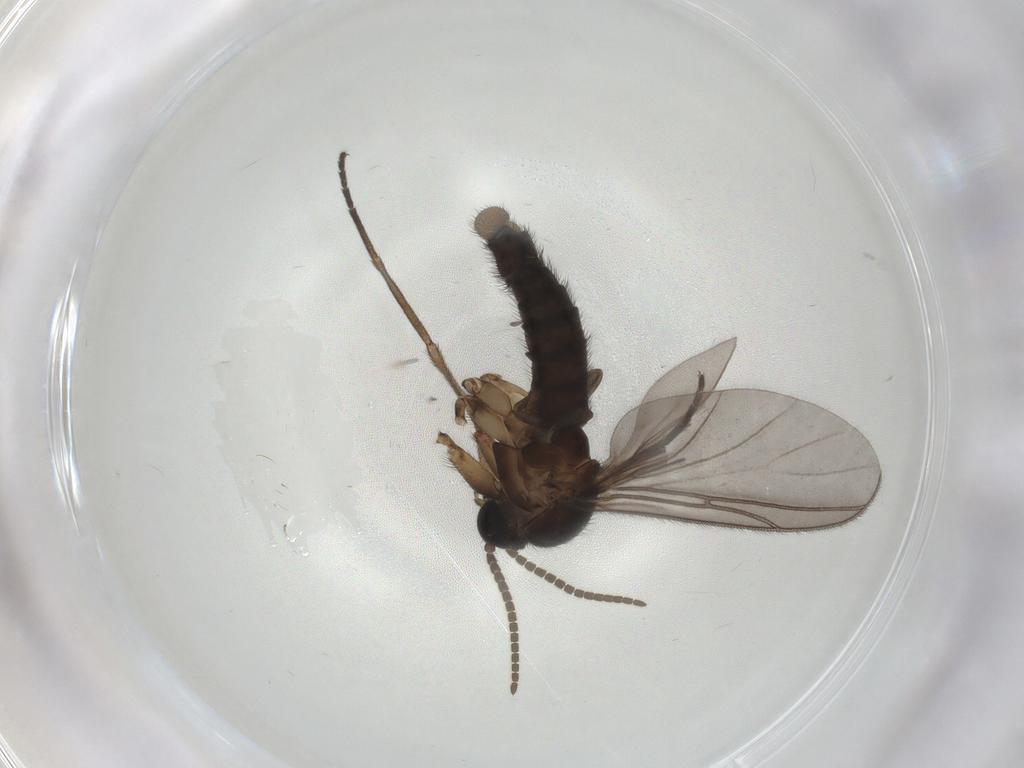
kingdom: Animalia
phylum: Arthropoda
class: Insecta
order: Diptera
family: Sciaridae
